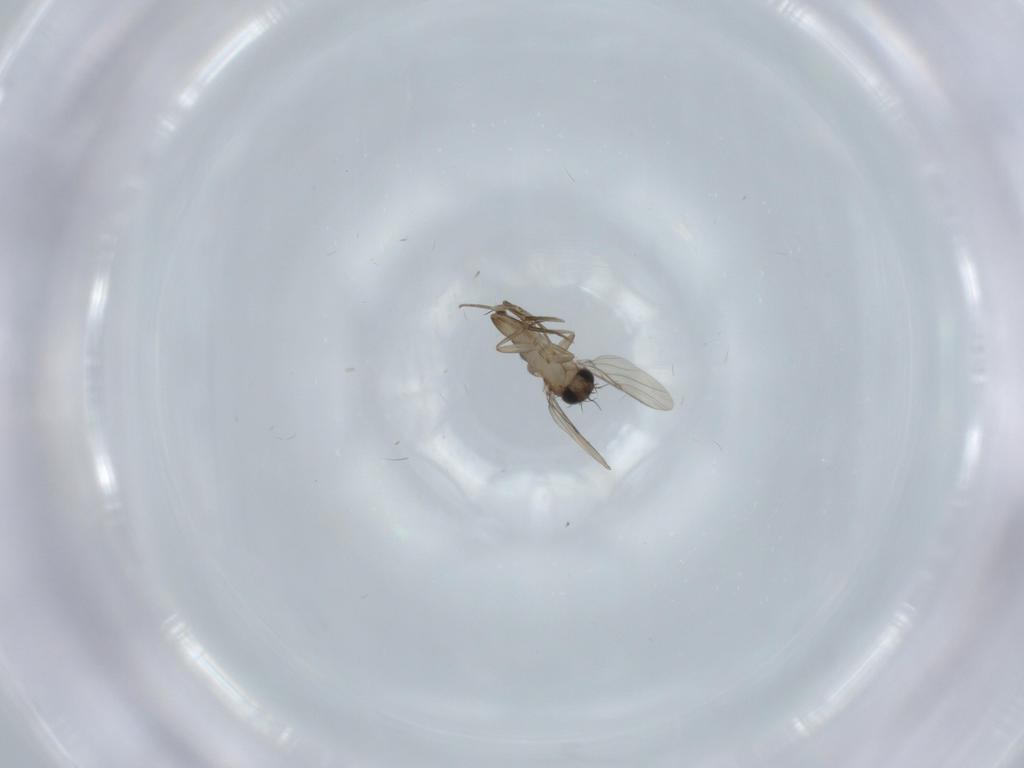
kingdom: Animalia
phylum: Arthropoda
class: Insecta
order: Diptera
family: Phoridae
